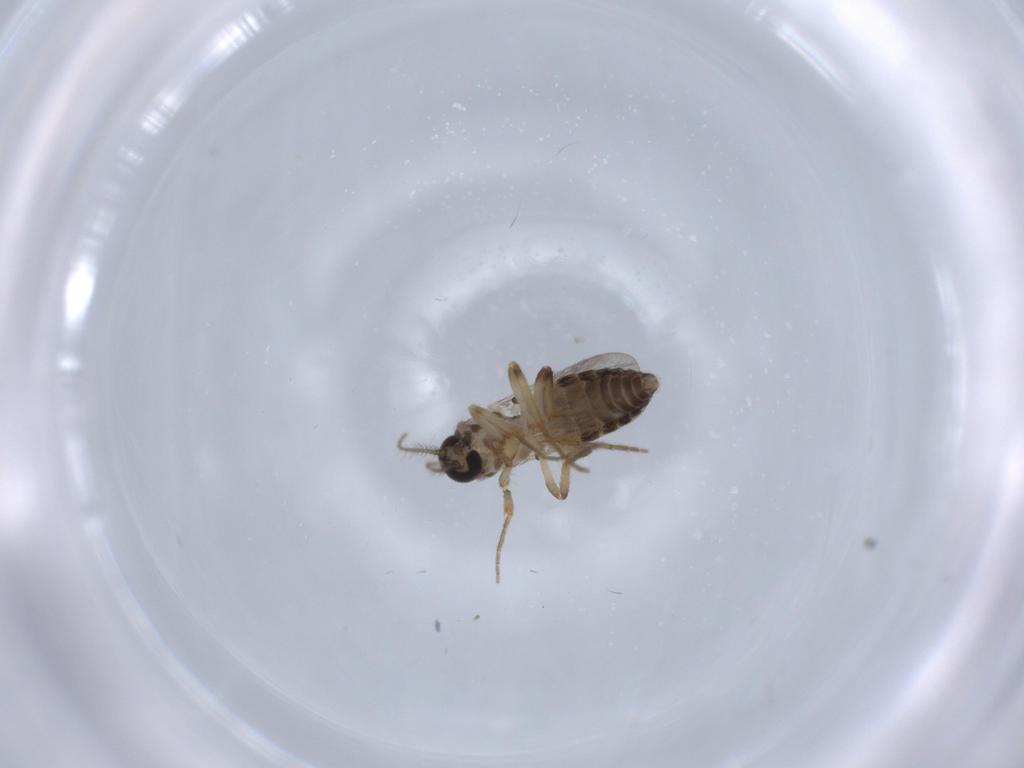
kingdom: Animalia
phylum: Arthropoda
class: Insecta
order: Diptera
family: Ceratopogonidae
